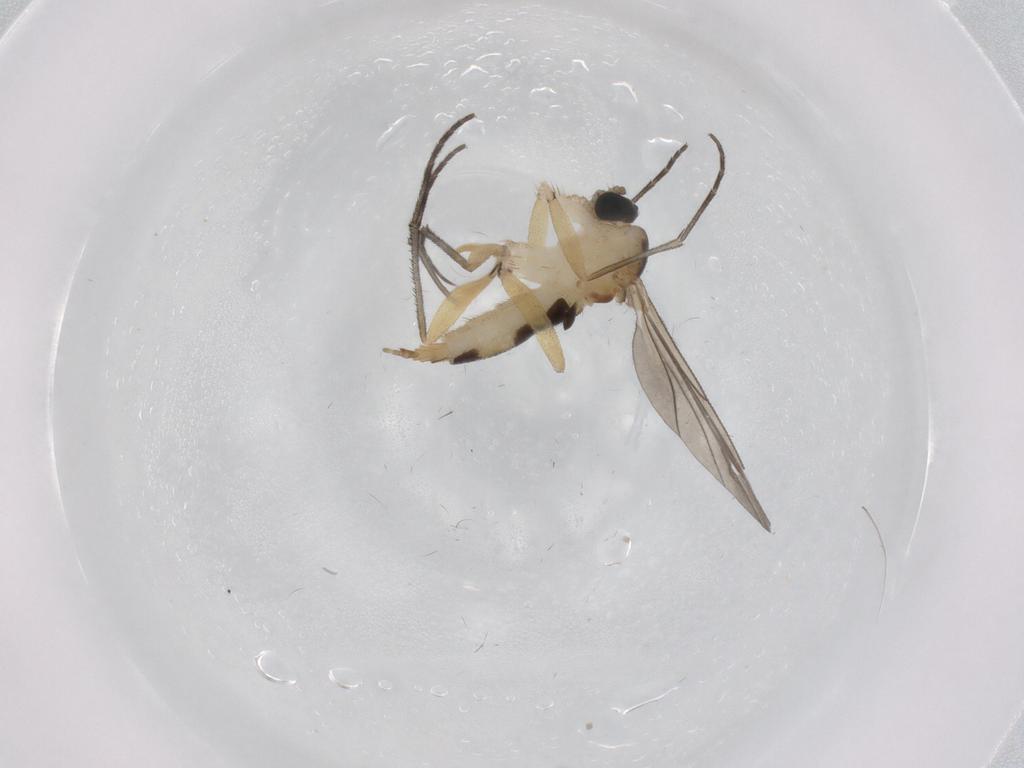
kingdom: Animalia
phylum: Arthropoda
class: Insecta
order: Diptera
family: Sciaridae
